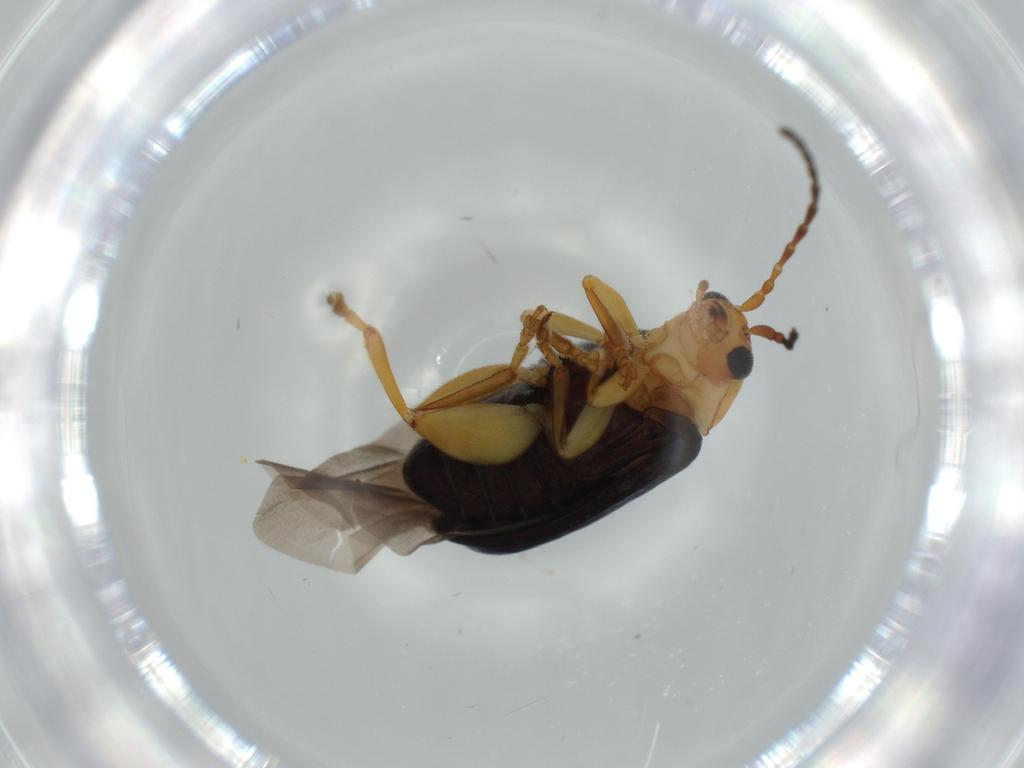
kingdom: Animalia
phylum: Arthropoda
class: Insecta
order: Coleoptera
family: Chrysomelidae
